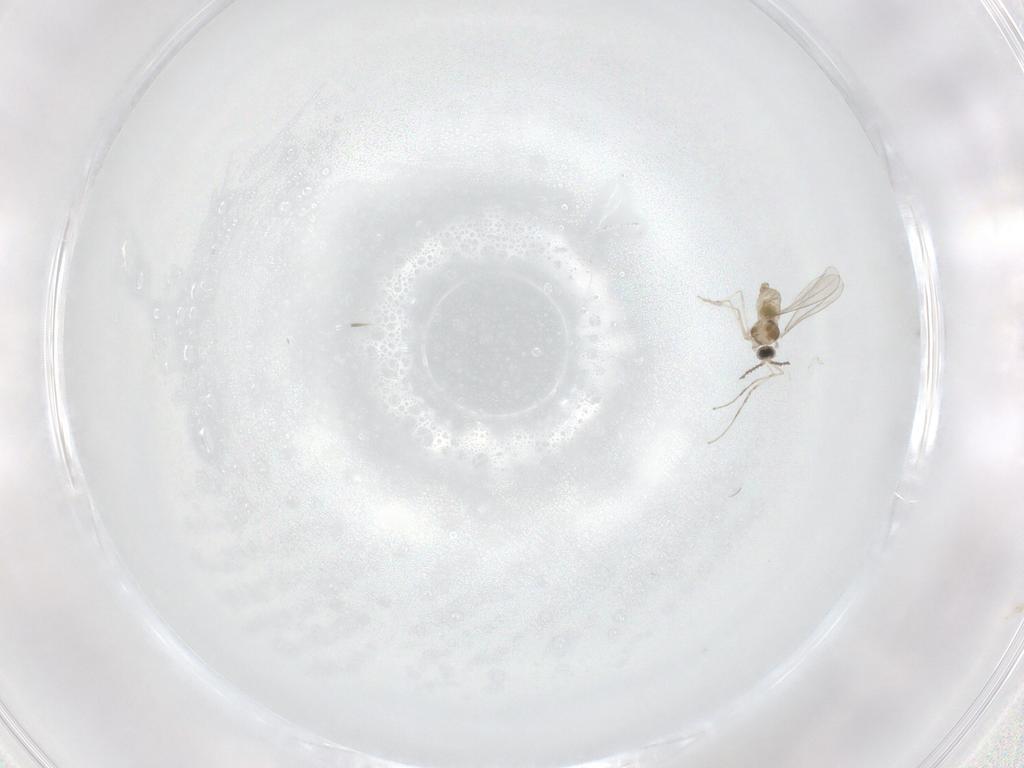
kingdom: Animalia
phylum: Arthropoda
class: Insecta
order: Diptera
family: Cecidomyiidae
